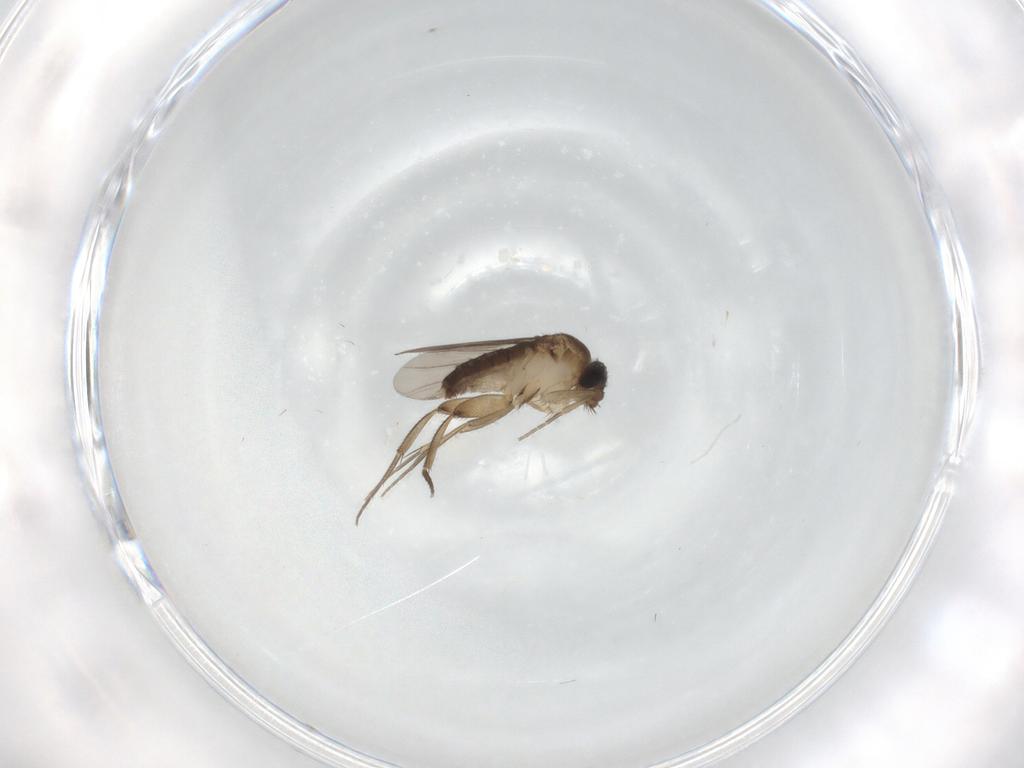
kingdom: Animalia
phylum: Arthropoda
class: Insecta
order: Diptera
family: Phoridae
